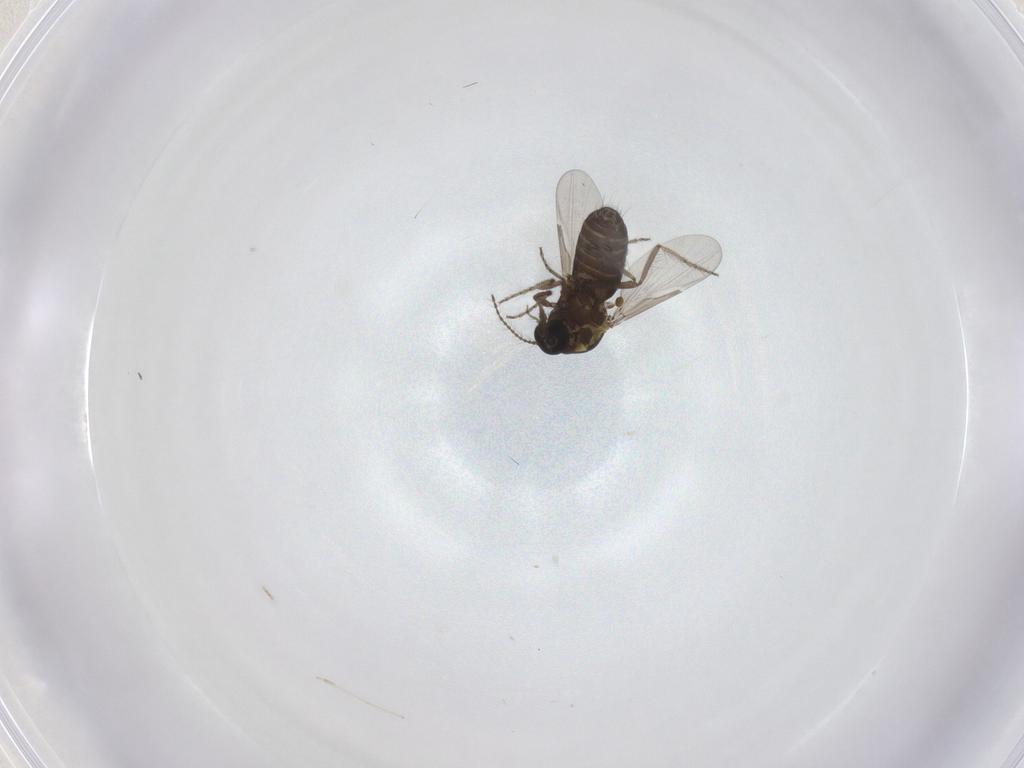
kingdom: Animalia
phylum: Arthropoda
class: Insecta
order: Diptera
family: Ceratopogonidae
